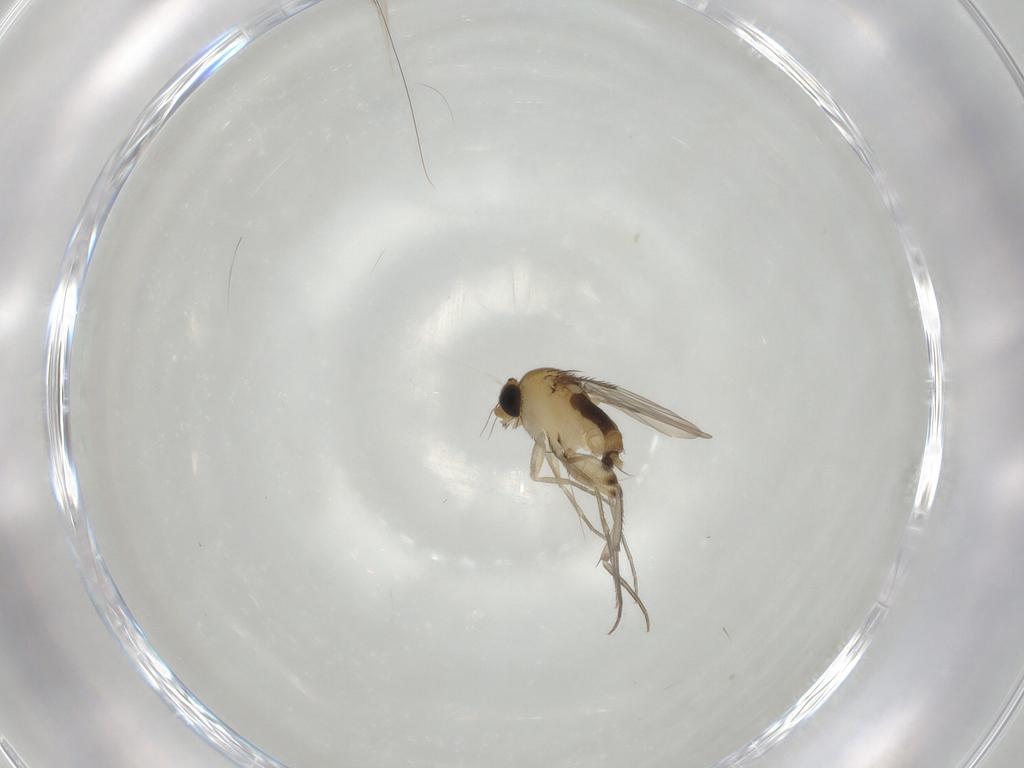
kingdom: Animalia
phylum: Arthropoda
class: Insecta
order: Diptera
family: Phoridae
